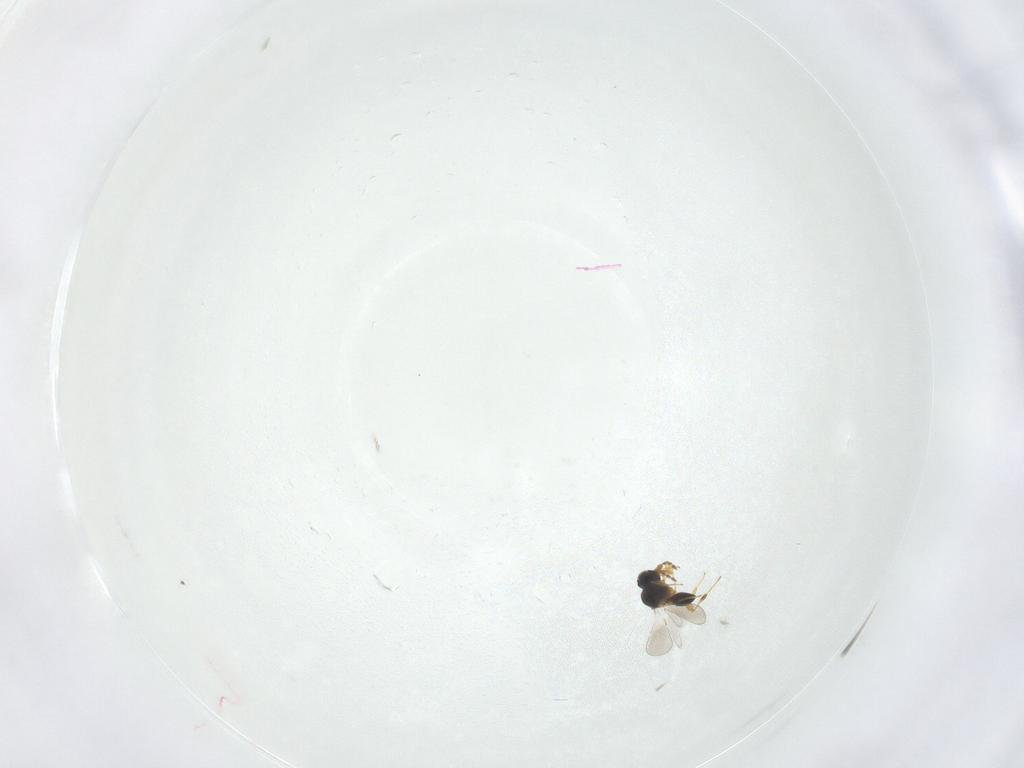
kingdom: Animalia
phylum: Arthropoda
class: Insecta
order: Hymenoptera
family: Platygastridae
